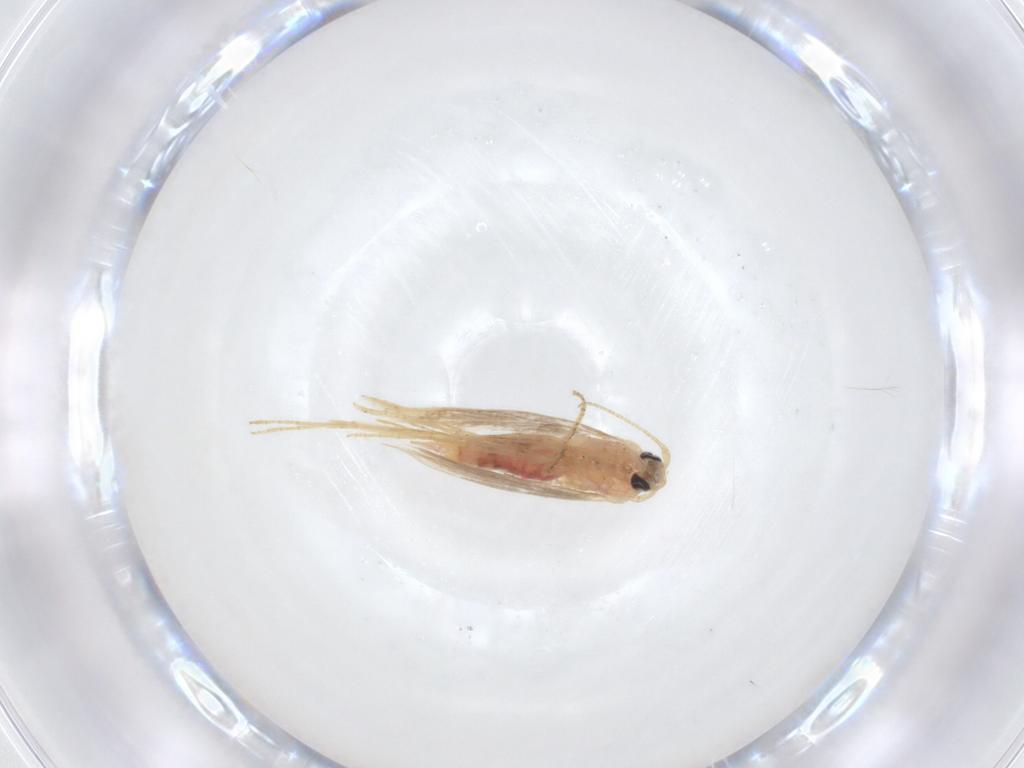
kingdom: Animalia
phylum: Arthropoda
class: Insecta
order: Lepidoptera
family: Bedelliidae
